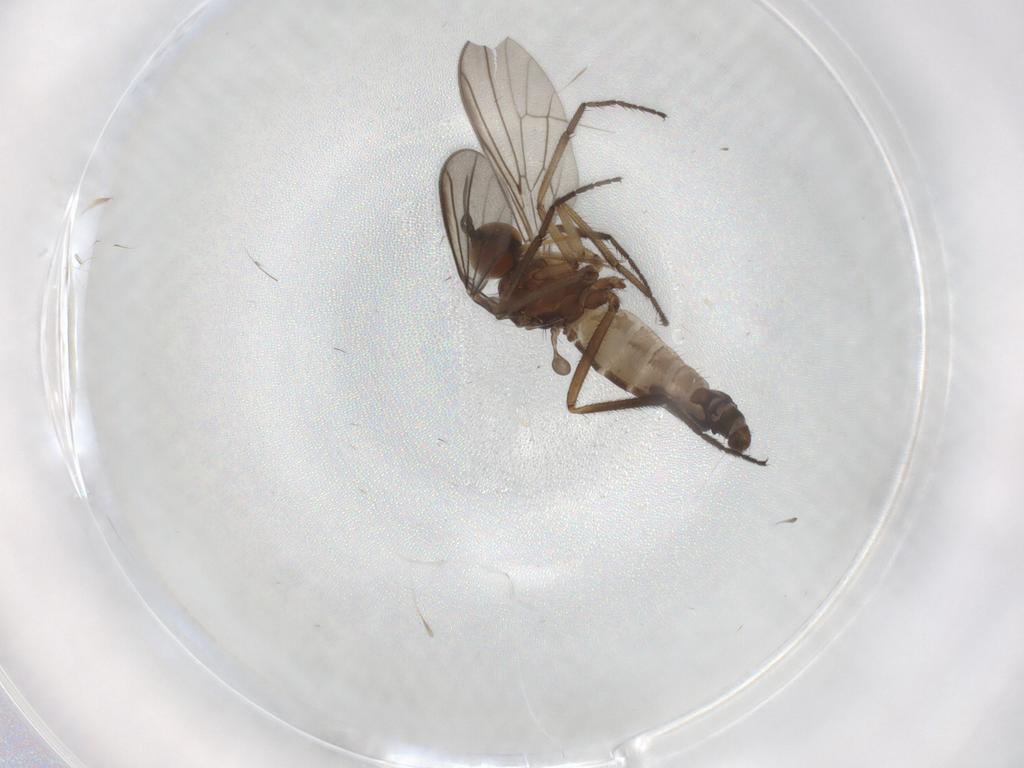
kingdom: Animalia
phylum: Arthropoda
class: Insecta
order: Diptera
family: Empididae
